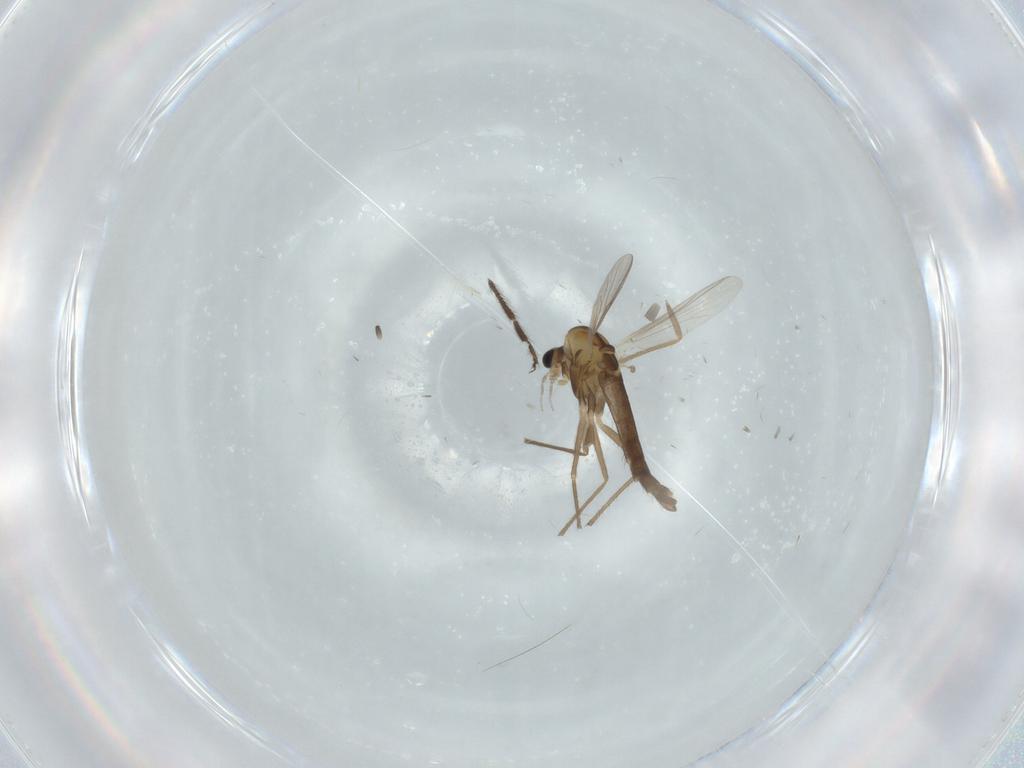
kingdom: Animalia
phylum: Arthropoda
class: Insecta
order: Diptera
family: Chironomidae
